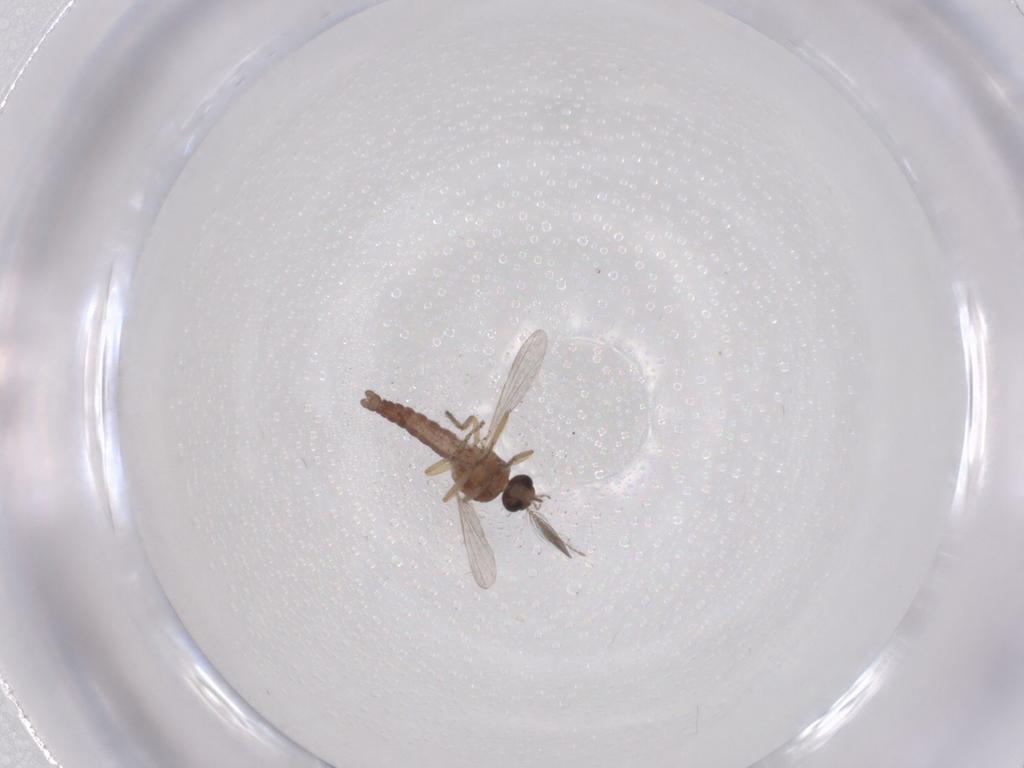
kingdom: Animalia
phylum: Arthropoda
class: Insecta
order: Diptera
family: Ceratopogonidae
